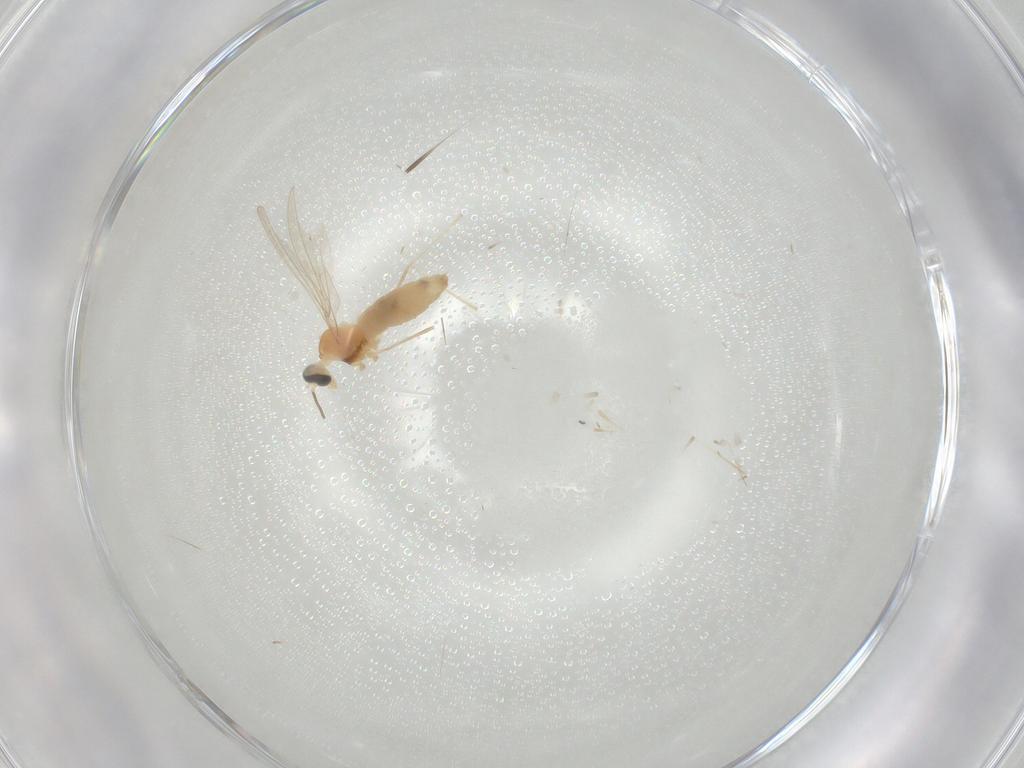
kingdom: Animalia
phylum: Arthropoda
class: Insecta
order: Diptera
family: Cecidomyiidae
